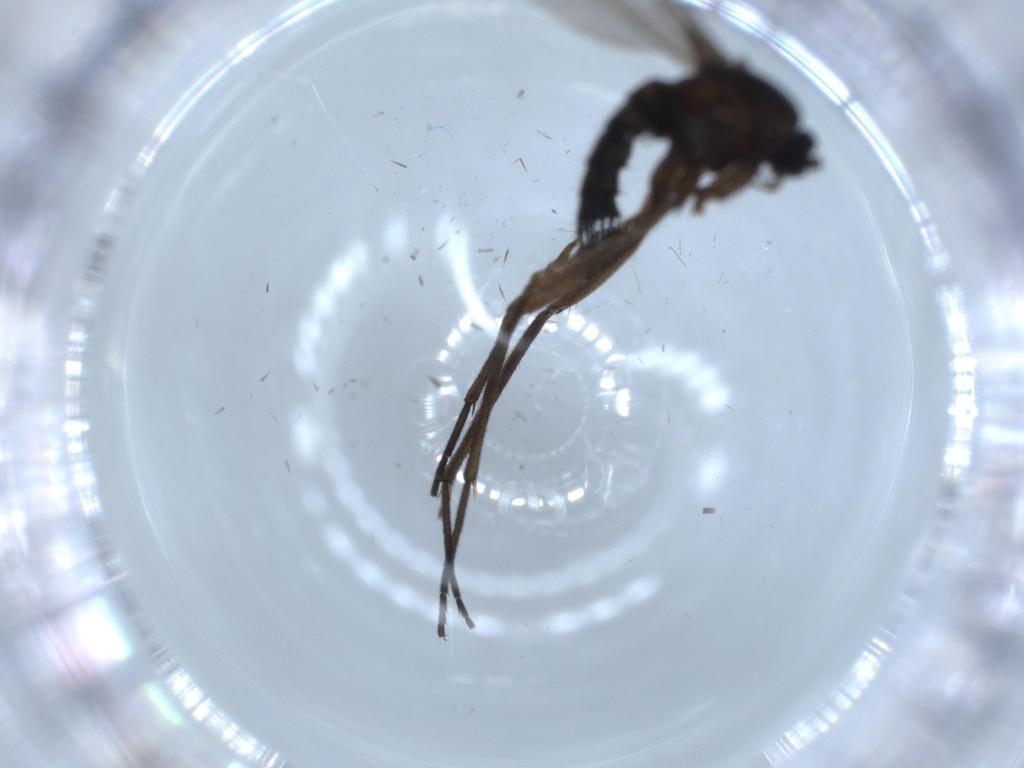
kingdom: Animalia
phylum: Arthropoda
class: Insecta
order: Diptera
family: Sciaridae
